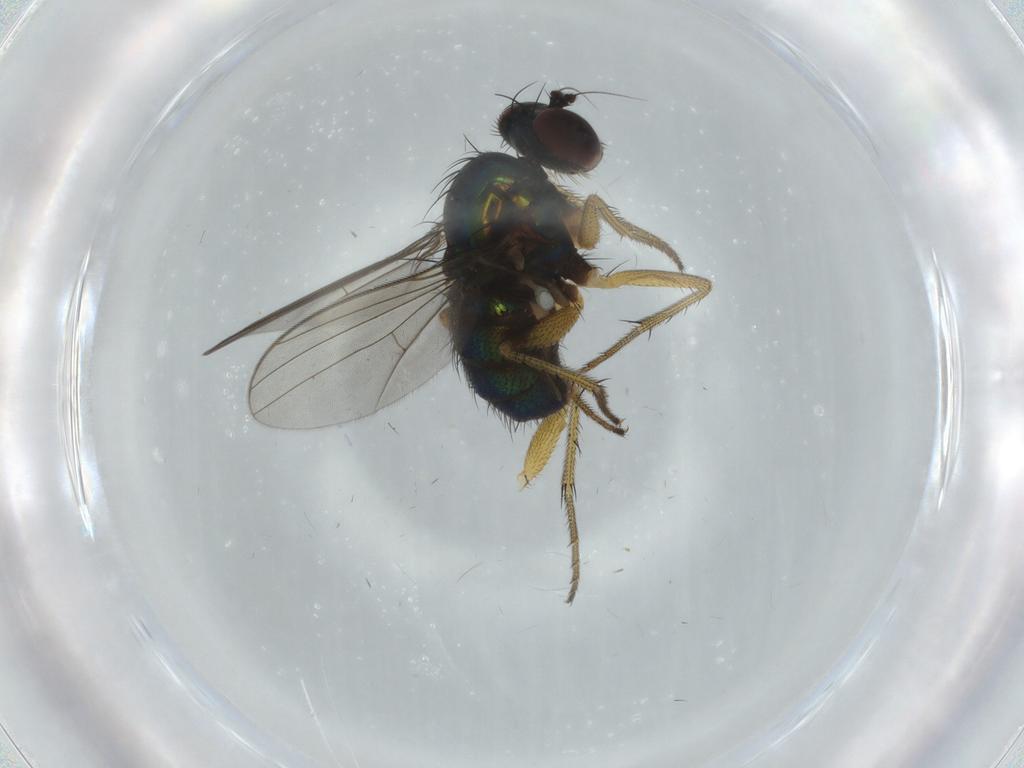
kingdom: Animalia
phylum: Arthropoda
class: Insecta
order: Diptera
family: Dolichopodidae
